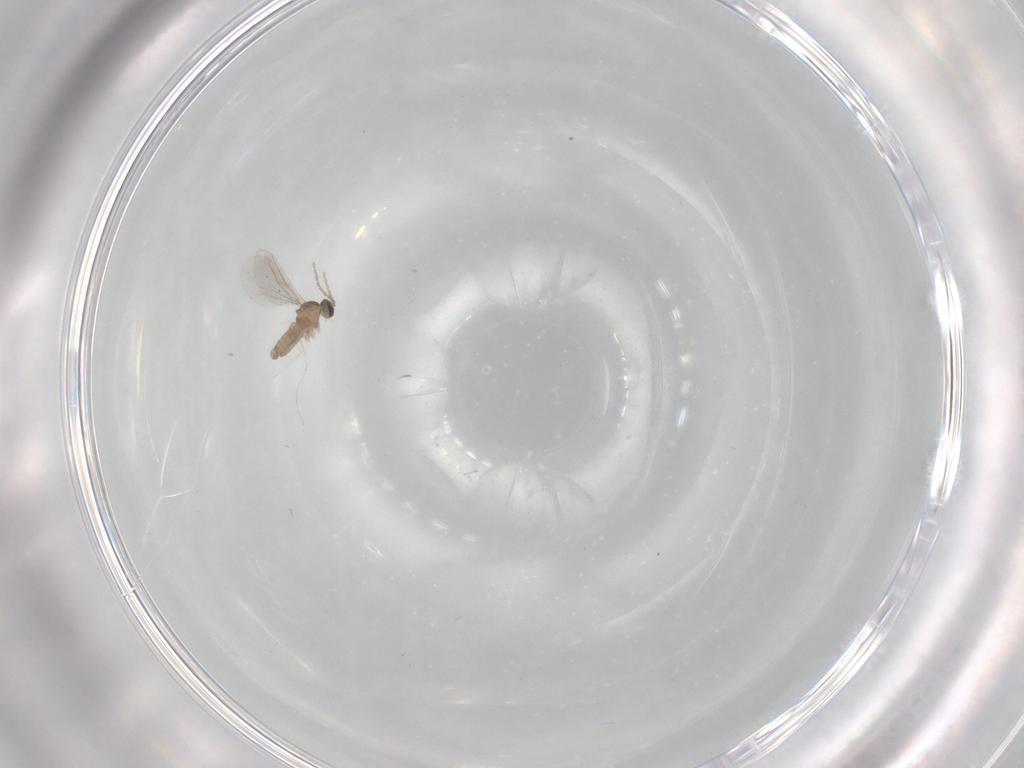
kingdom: Animalia
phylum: Arthropoda
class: Insecta
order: Diptera
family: Cecidomyiidae
